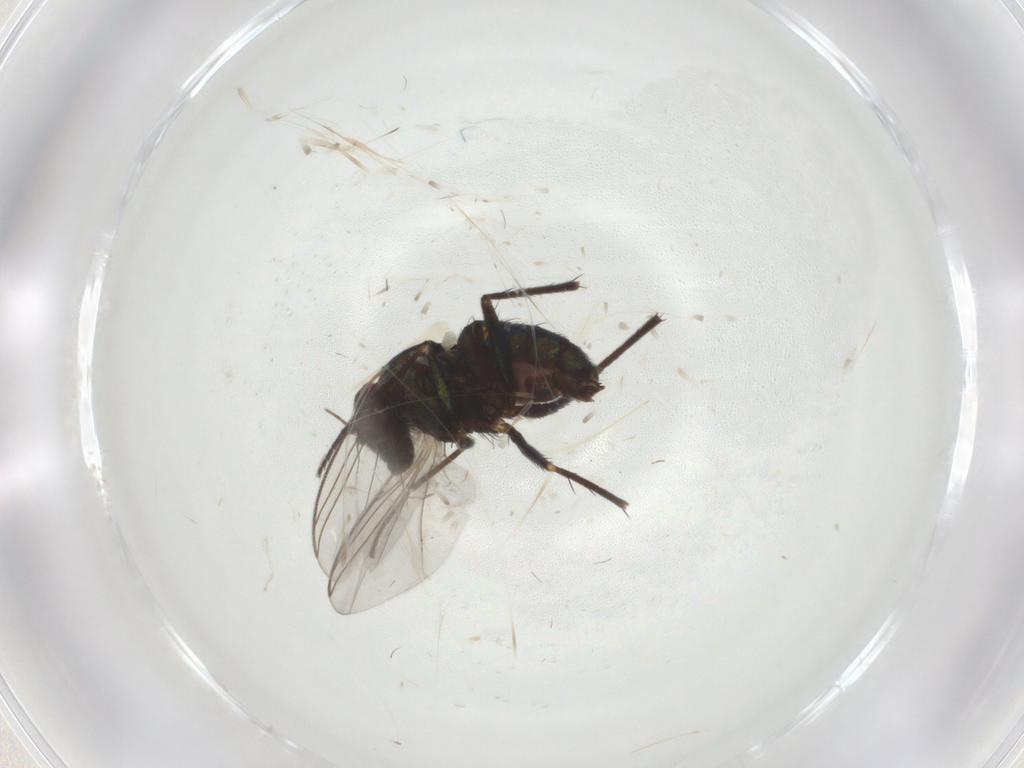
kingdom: Animalia
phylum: Arthropoda
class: Insecta
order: Diptera
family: Dolichopodidae
